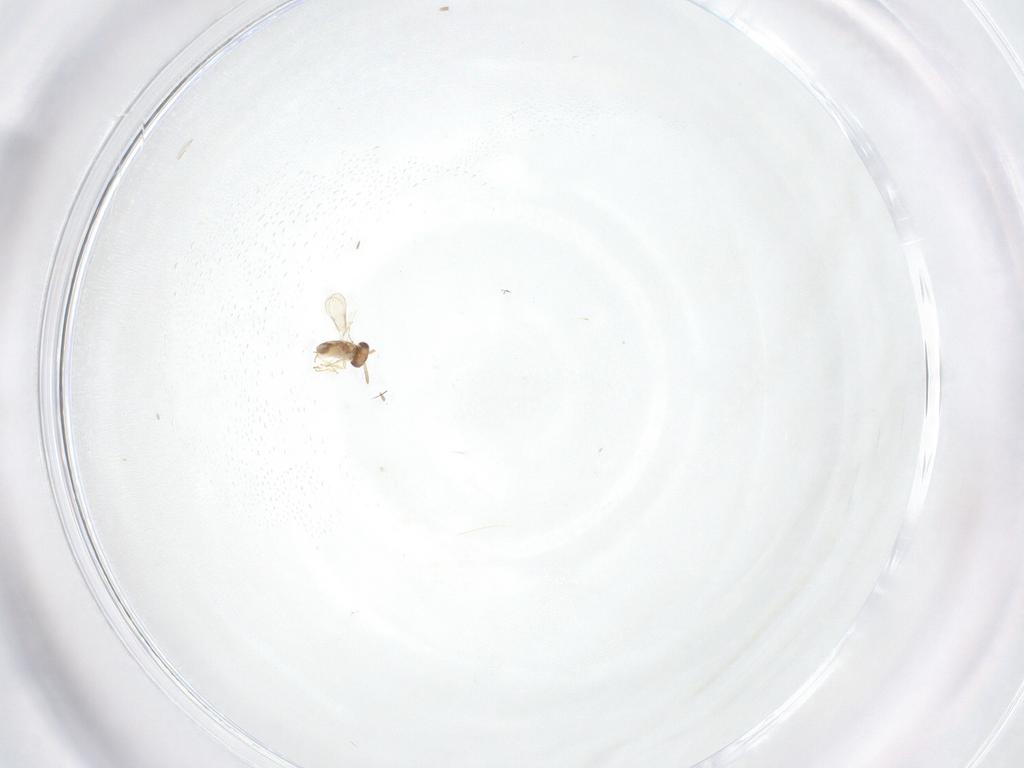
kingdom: Animalia
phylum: Arthropoda
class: Insecta
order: Hymenoptera
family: Aphelinidae
